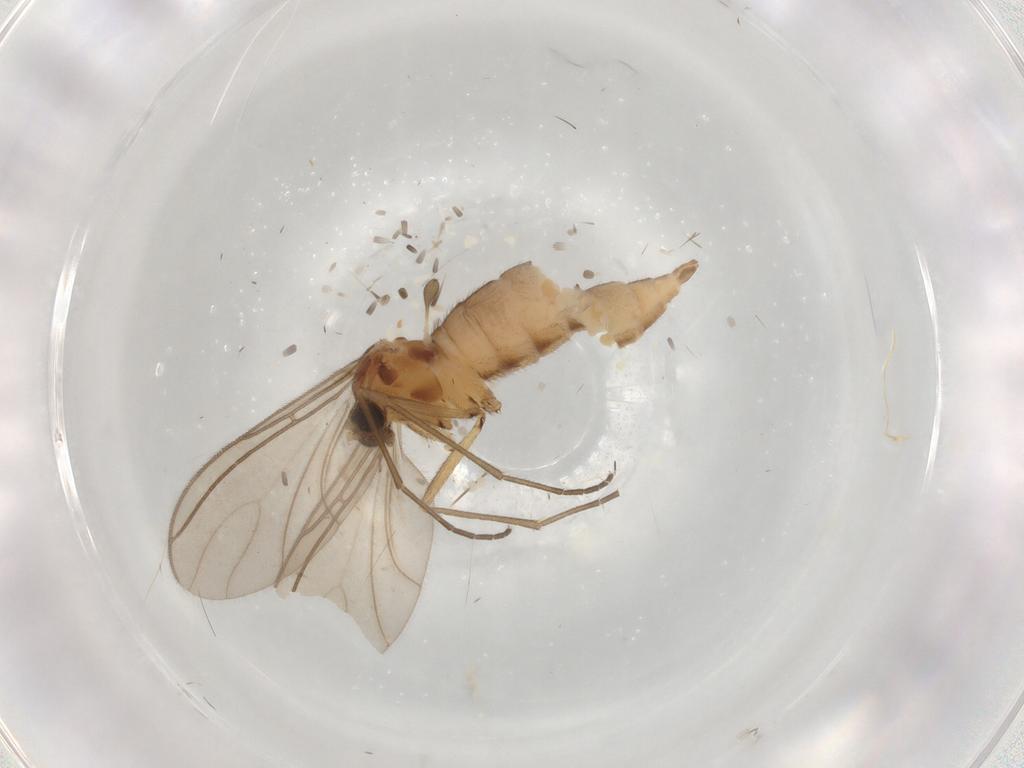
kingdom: Animalia
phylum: Arthropoda
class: Insecta
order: Diptera
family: Sciaridae
